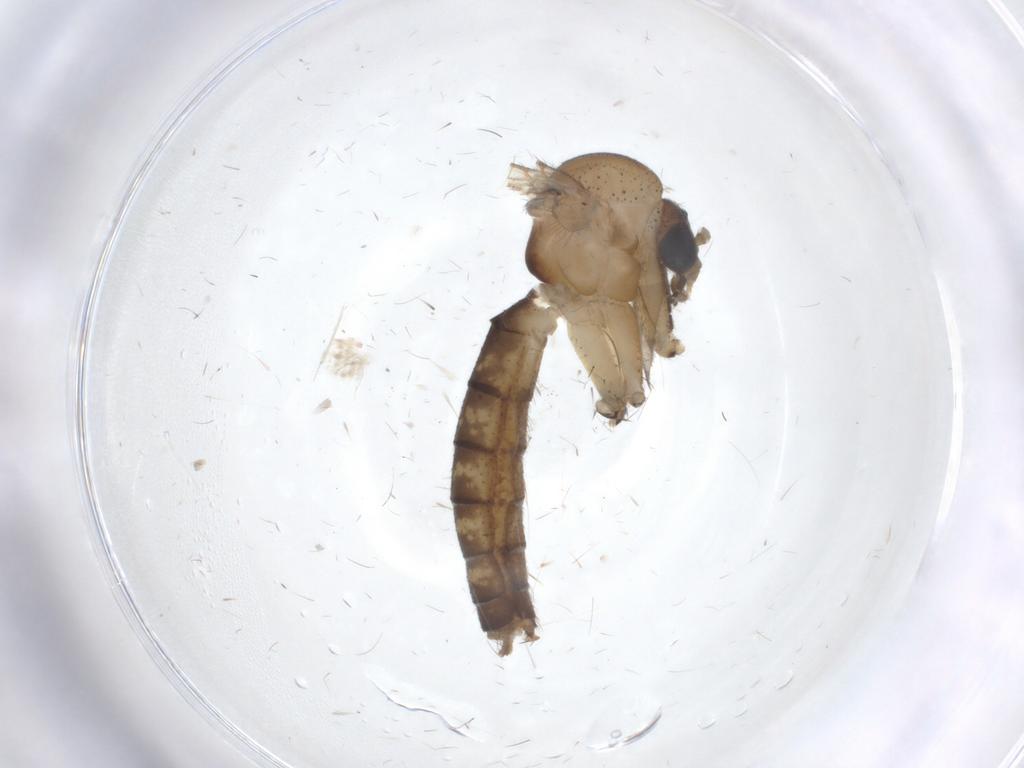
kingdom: Animalia
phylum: Arthropoda
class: Insecta
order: Diptera
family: Mycetophilidae
